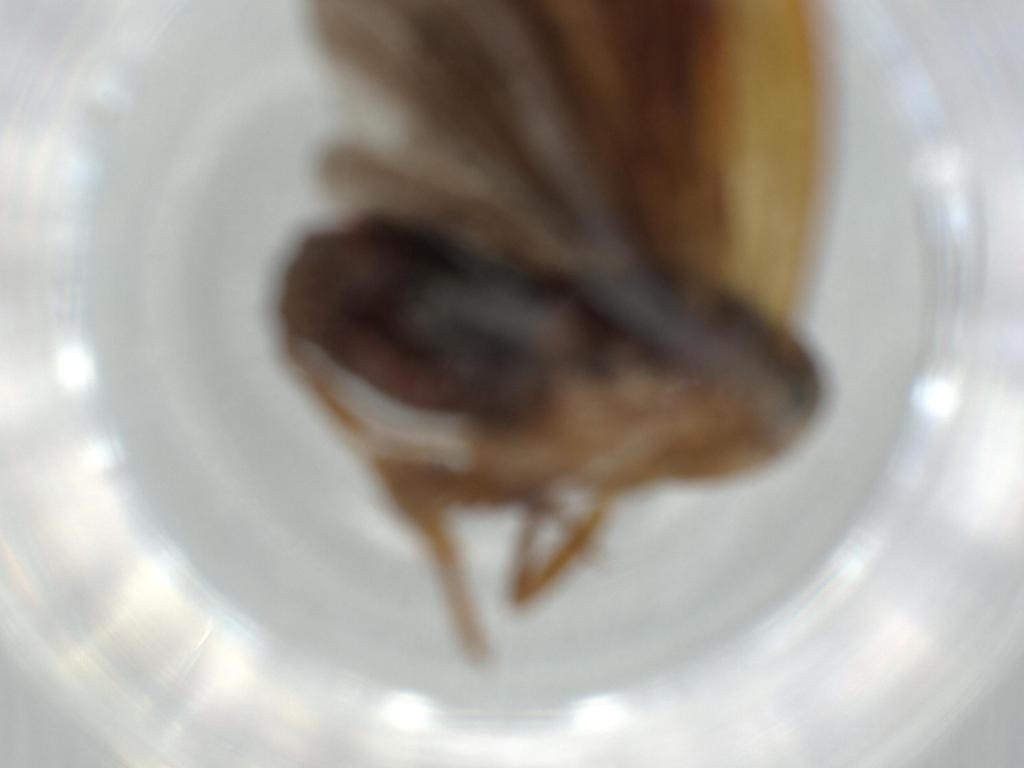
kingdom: Animalia
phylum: Arthropoda
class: Insecta
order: Hemiptera
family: Achilidae
